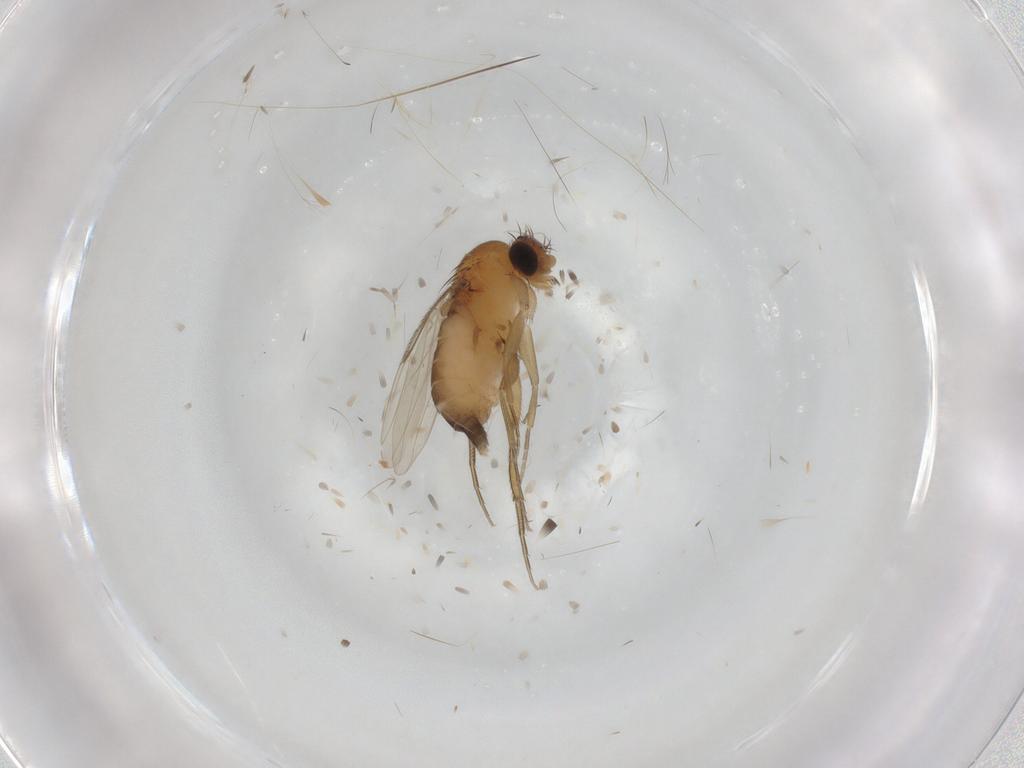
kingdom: Animalia
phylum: Arthropoda
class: Insecta
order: Diptera
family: Phoridae
